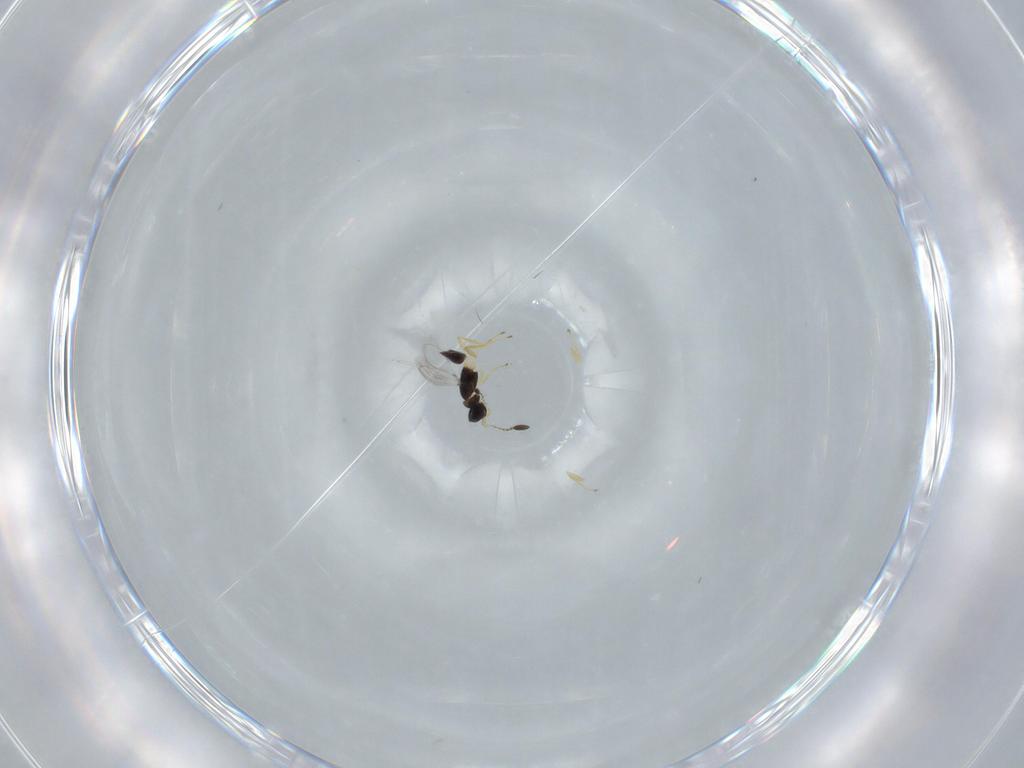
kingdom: Animalia
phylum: Arthropoda
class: Insecta
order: Hymenoptera
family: Mymaridae
